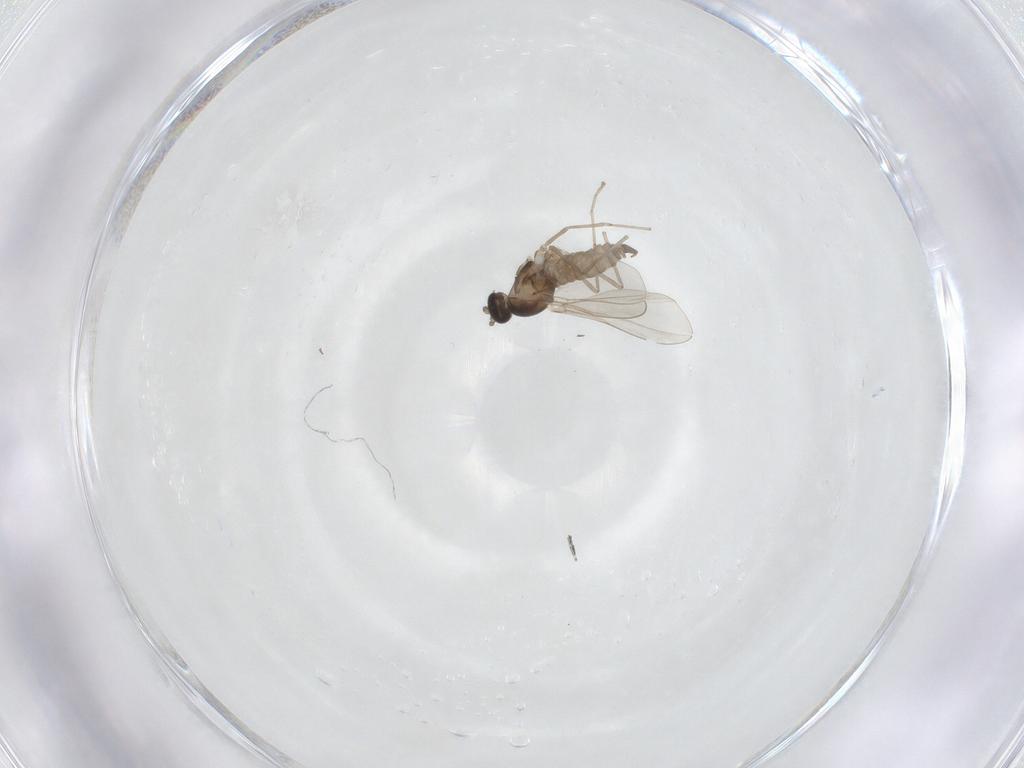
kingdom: Animalia
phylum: Arthropoda
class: Insecta
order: Diptera
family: Cecidomyiidae
